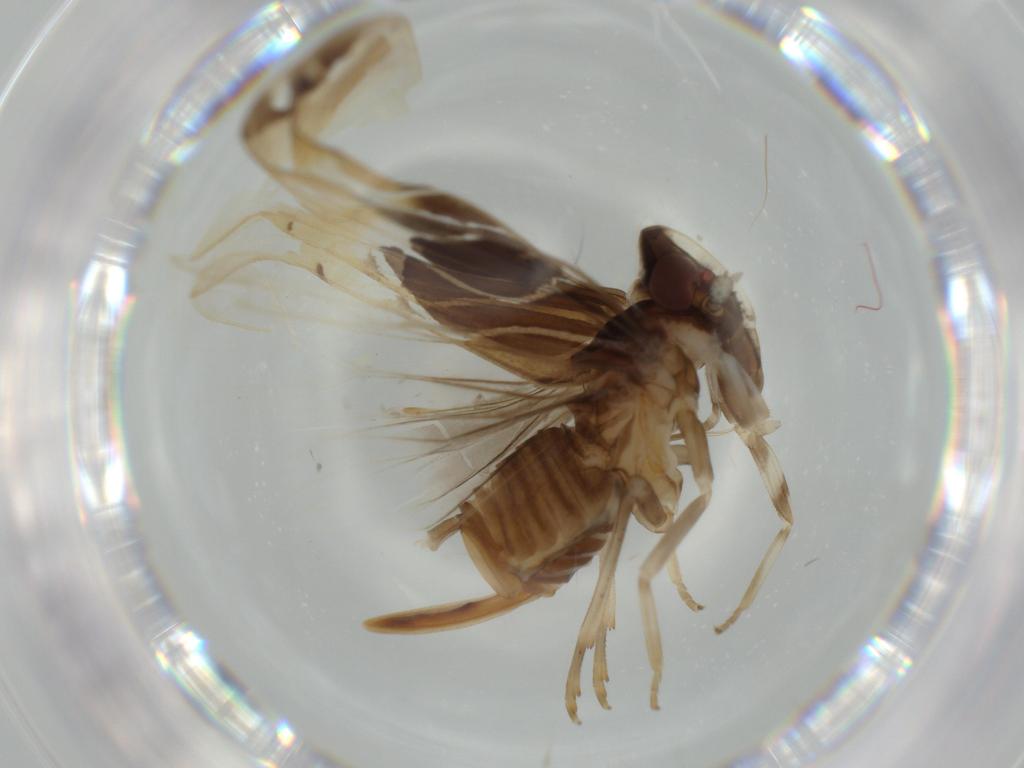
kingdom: Animalia
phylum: Arthropoda
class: Insecta
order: Hemiptera
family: Cixiidae
